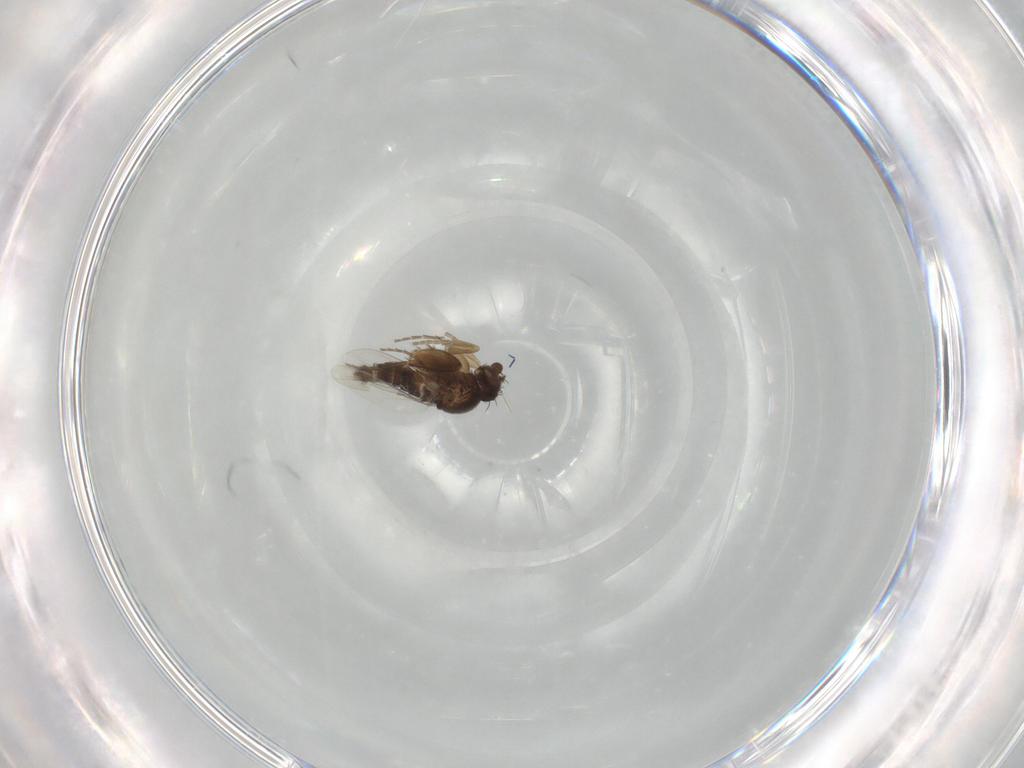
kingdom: Animalia
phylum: Arthropoda
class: Insecta
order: Diptera
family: Phoridae
